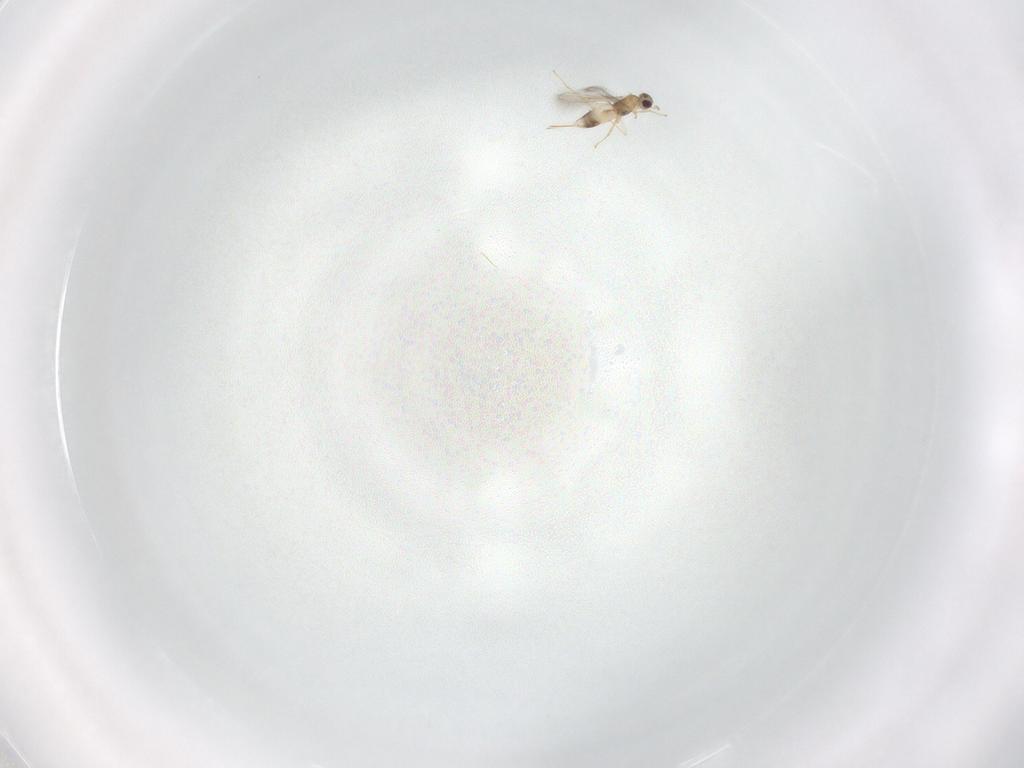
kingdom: Animalia
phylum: Arthropoda
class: Insecta
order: Hymenoptera
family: Mymaridae
